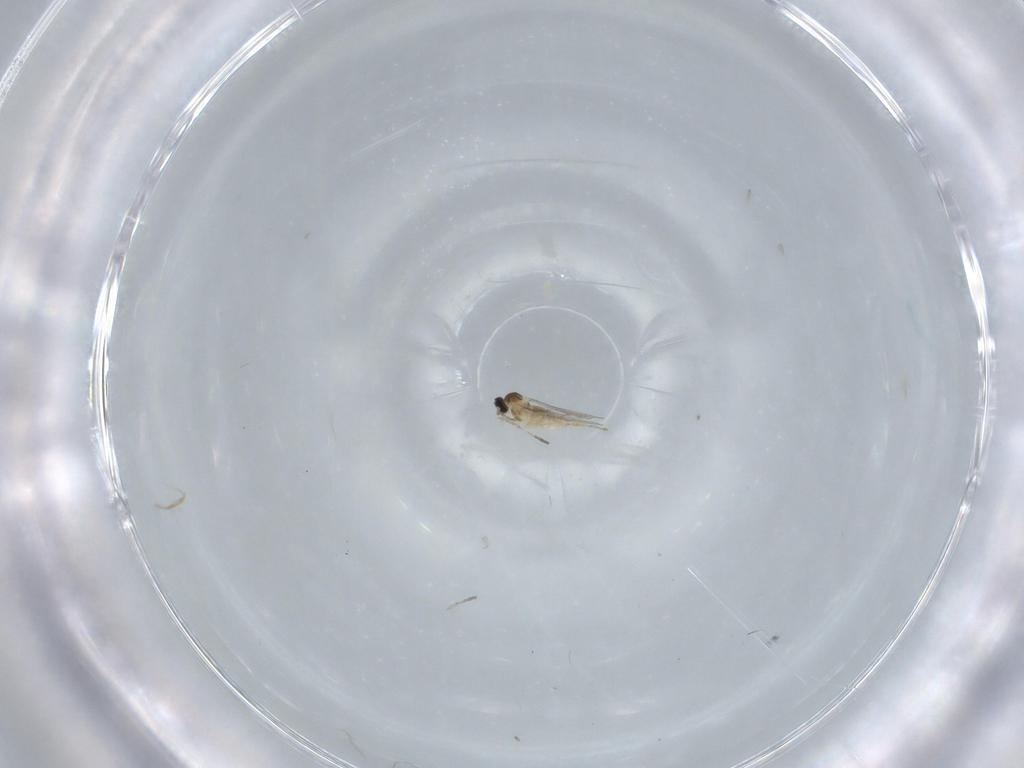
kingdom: Animalia
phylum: Arthropoda
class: Insecta
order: Diptera
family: Cecidomyiidae
